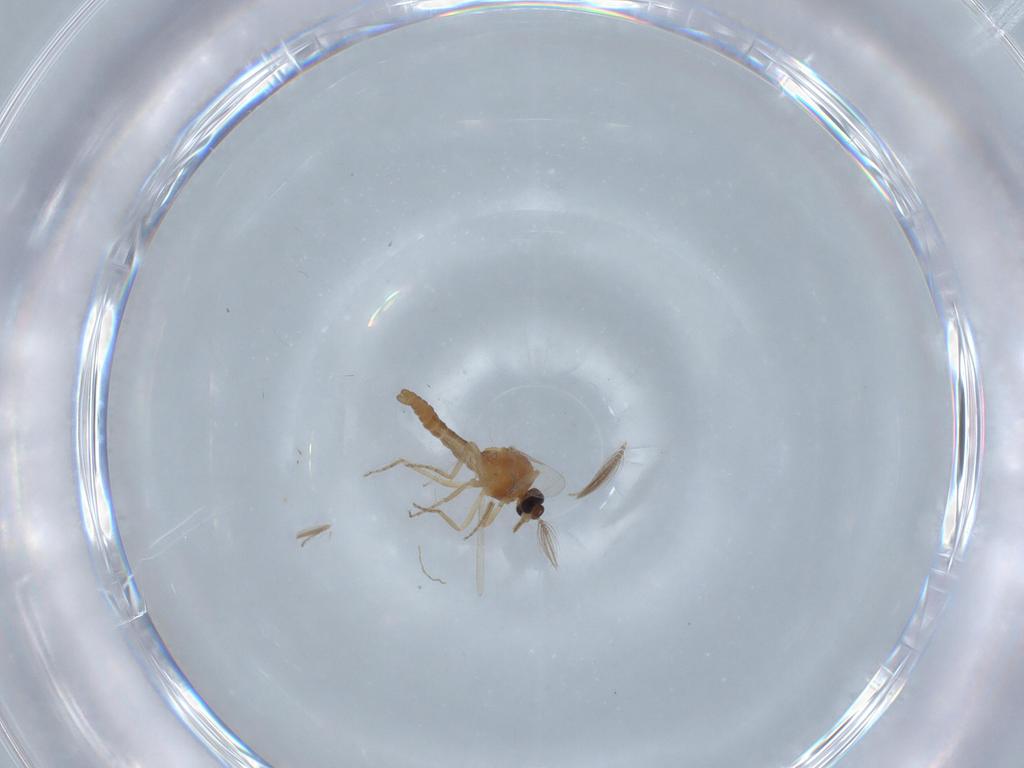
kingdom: Animalia
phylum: Arthropoda
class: Insecta
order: Diptera
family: Ceratopogonidae
